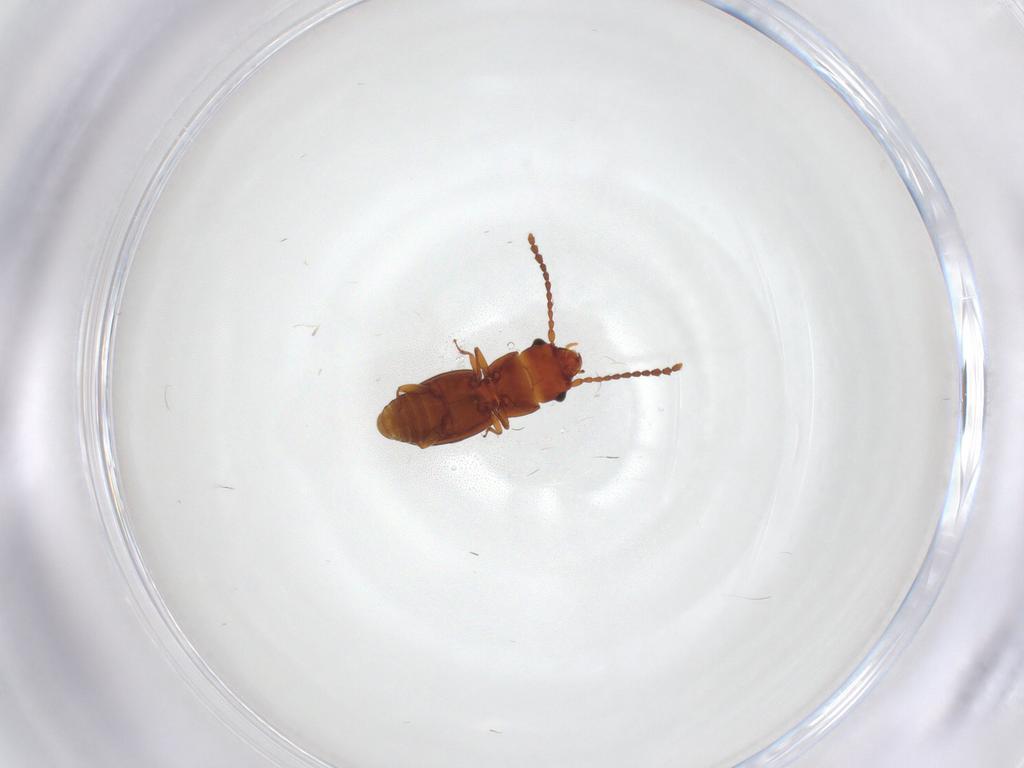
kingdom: Animalia
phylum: Arthropoda
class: Insecta
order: Coleoptera
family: Laemophloeidae
